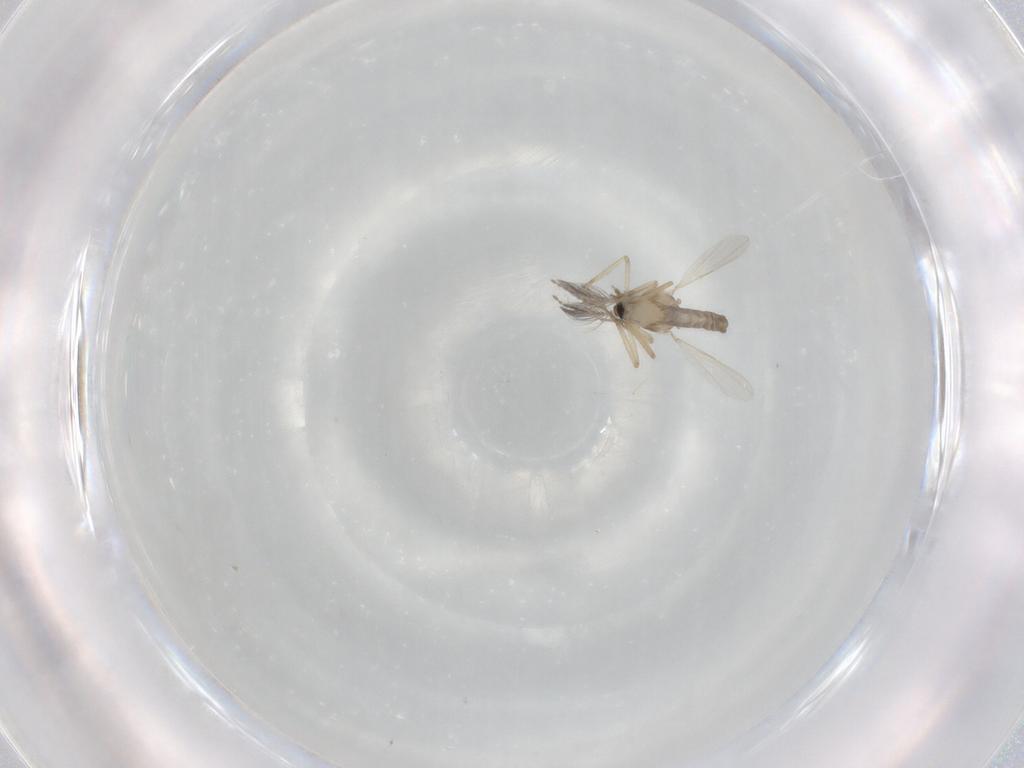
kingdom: Animalia
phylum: Arthropoda
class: Insecta
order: Diptera
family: Ceratopogonidae
